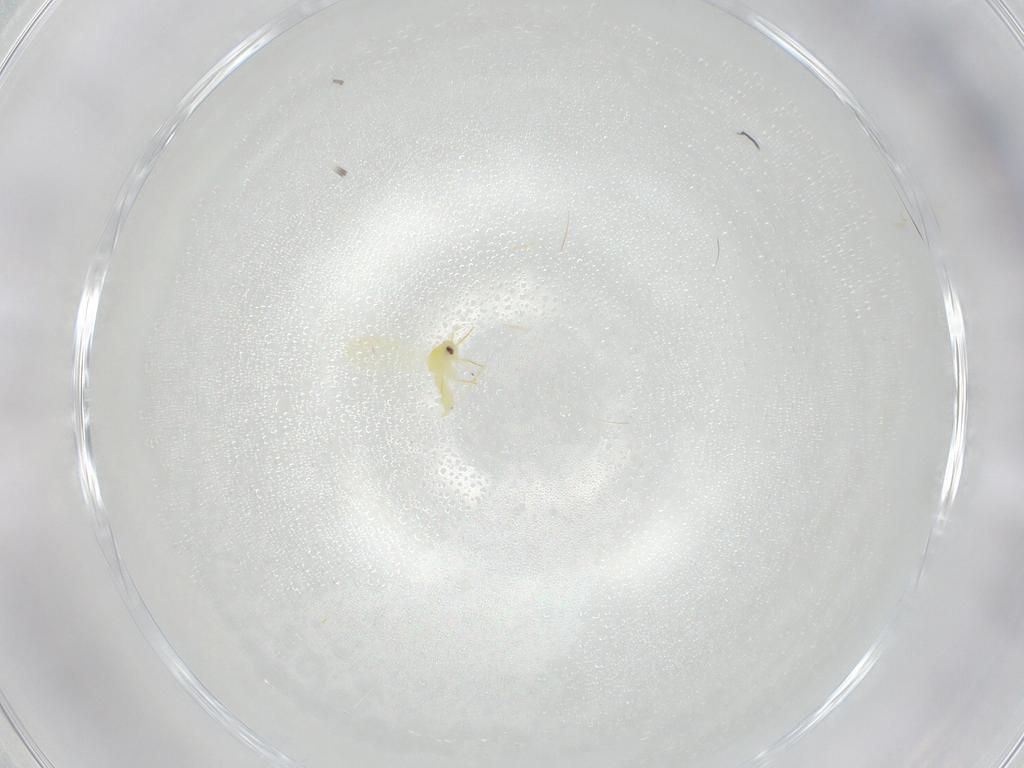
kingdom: Animalia
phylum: Arthropoda
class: Insecta
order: Hemiptera
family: Aleyrodidae
